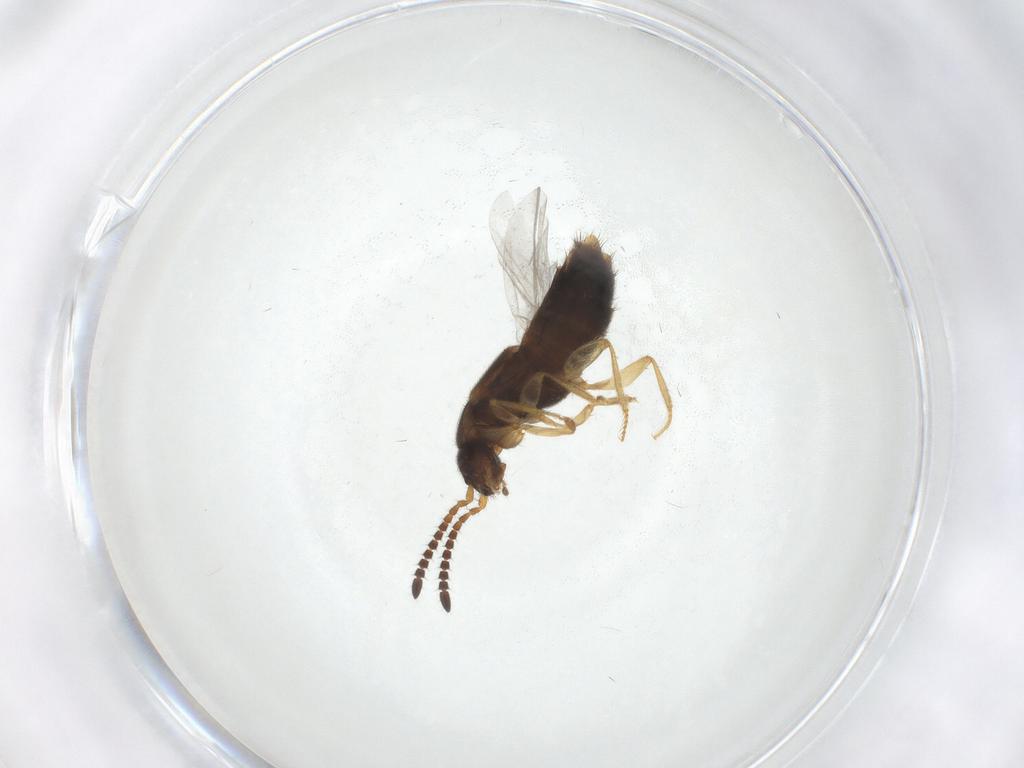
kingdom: Animalia
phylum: Arthropoda
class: Insecta
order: Coleoptera
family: Staphylinidae
